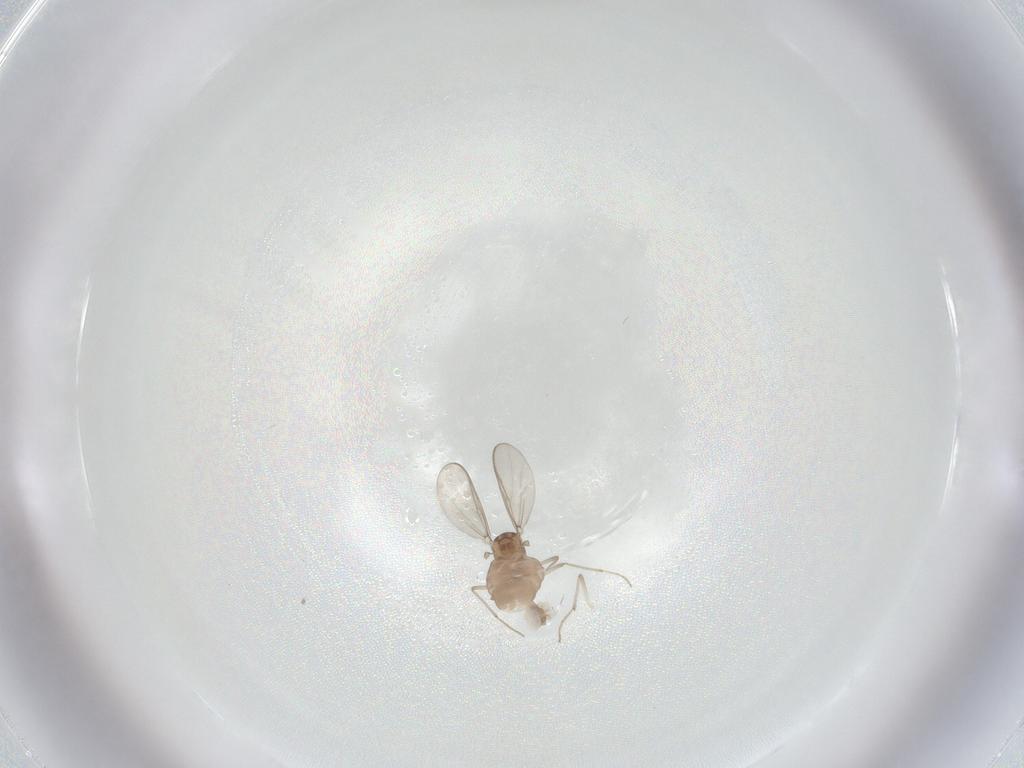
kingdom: Animalia
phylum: Arthropoda
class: Insecta
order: Diptera
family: Chironomidae
